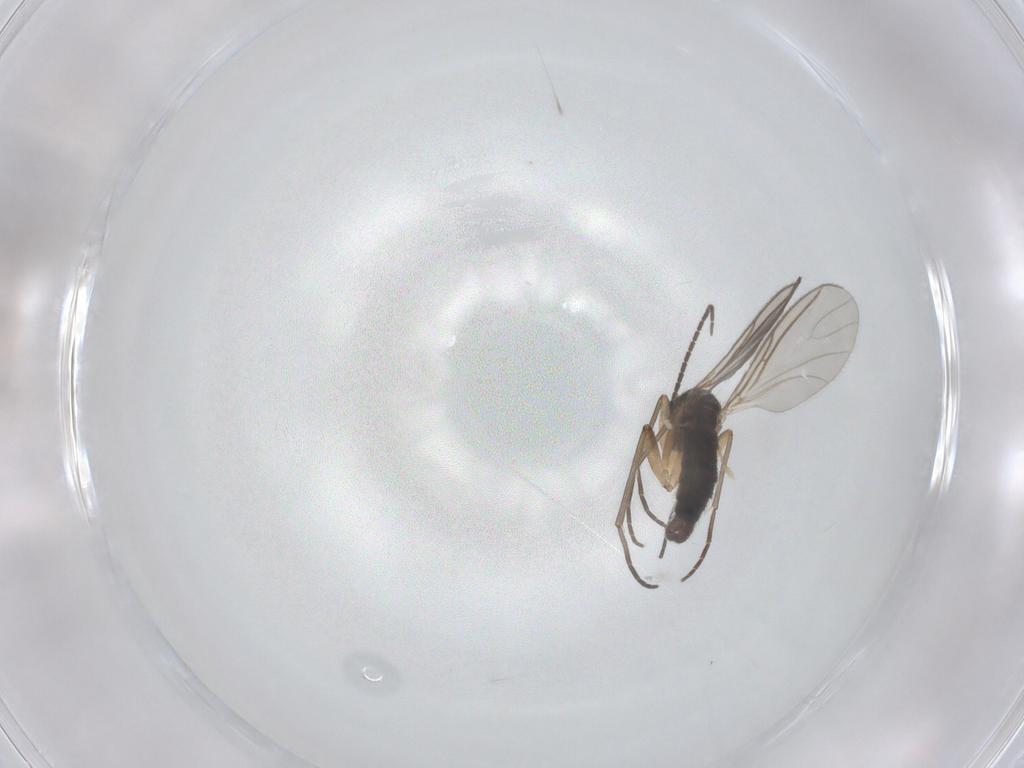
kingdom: Animalia
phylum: Arthropoda
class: Insecta
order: Diptera
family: Sciaridae
